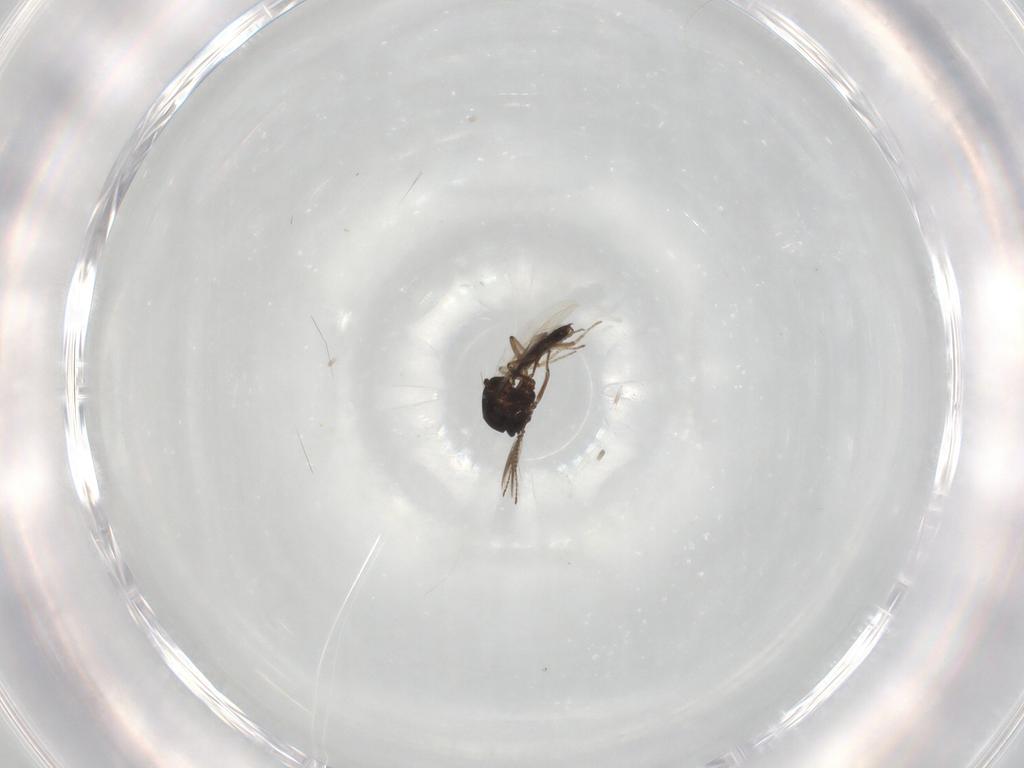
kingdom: Animalia
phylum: Arthropoda
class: Insecta
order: Diptera
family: Ceratopogonidae
